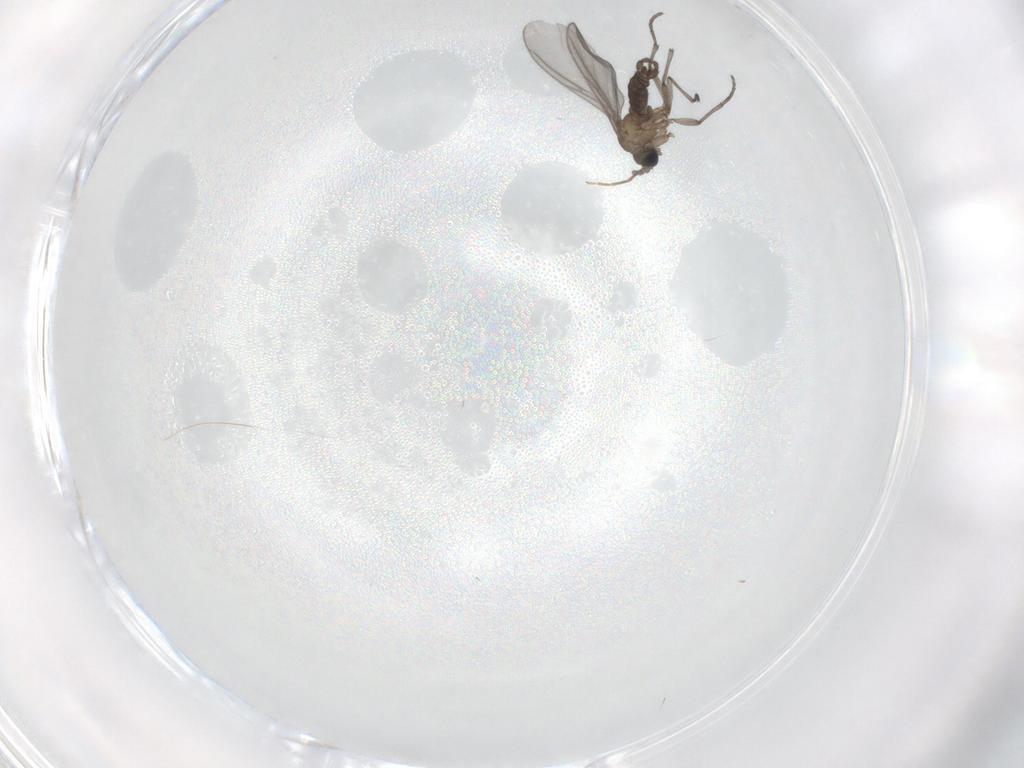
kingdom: Animalia
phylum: Arthropoda
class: Insecta
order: Diptera
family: Sciaridae
